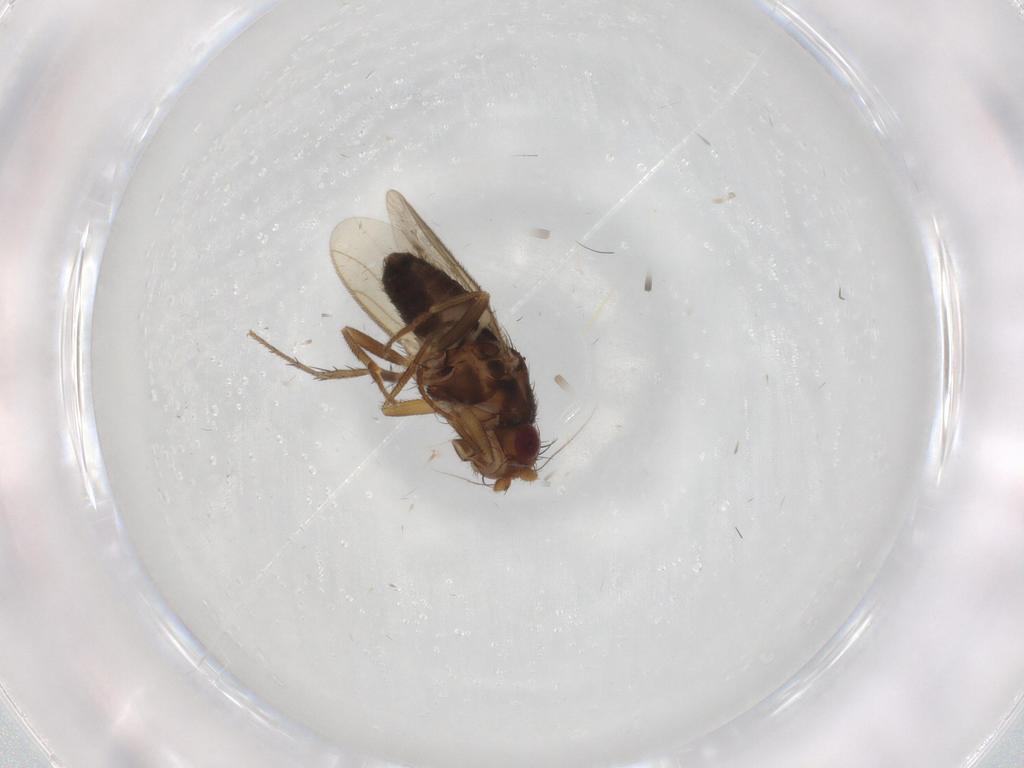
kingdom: Animalia
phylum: Arthropoda
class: Insecta
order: Diptera
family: Sphaeroceridae
